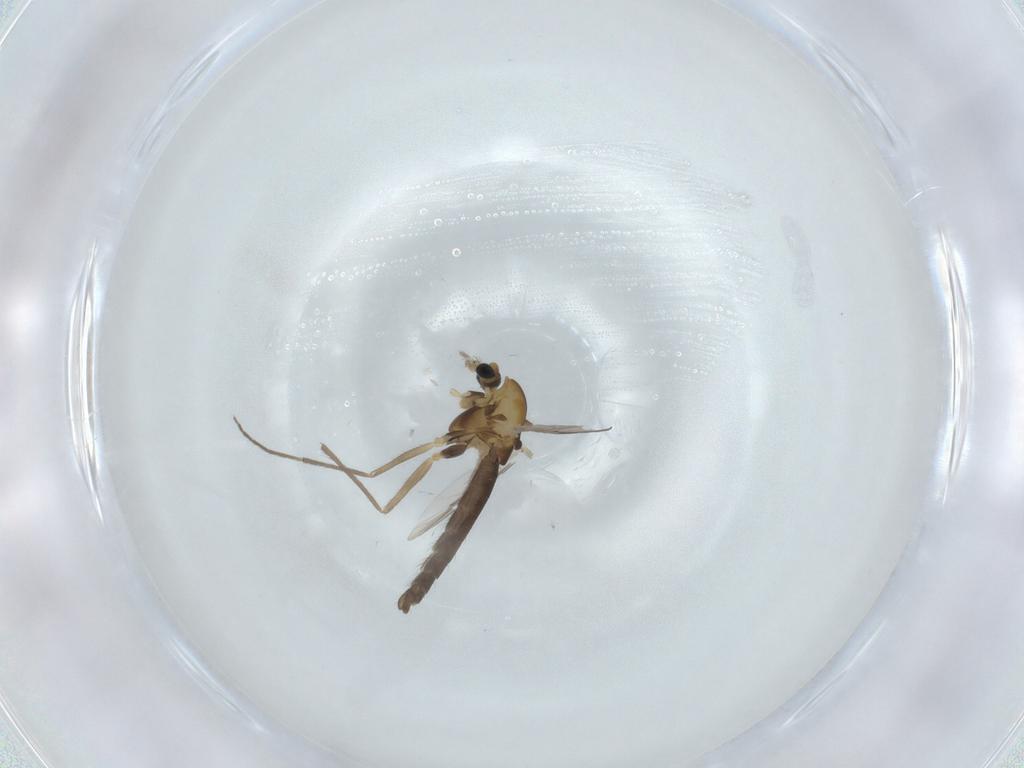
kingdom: Animalia
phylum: Arthropoda
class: Insecta
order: Diptera
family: Chironomidae
